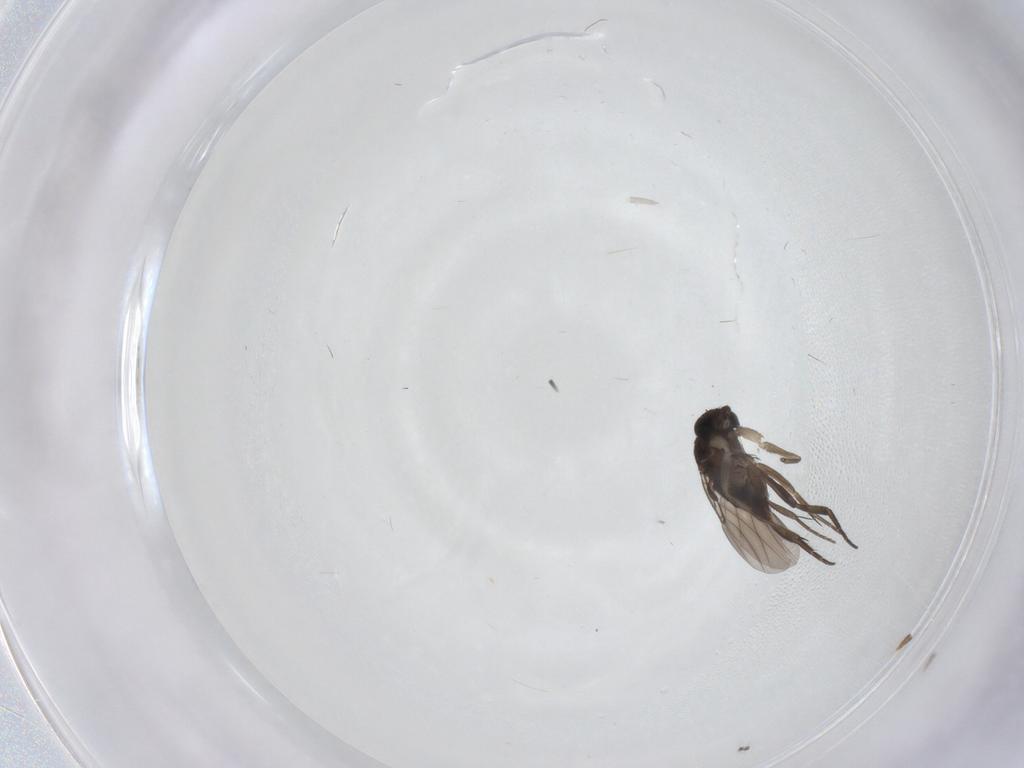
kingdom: Animalia
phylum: Arthropoda
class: Insecta
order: Diptera
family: Phoridae
